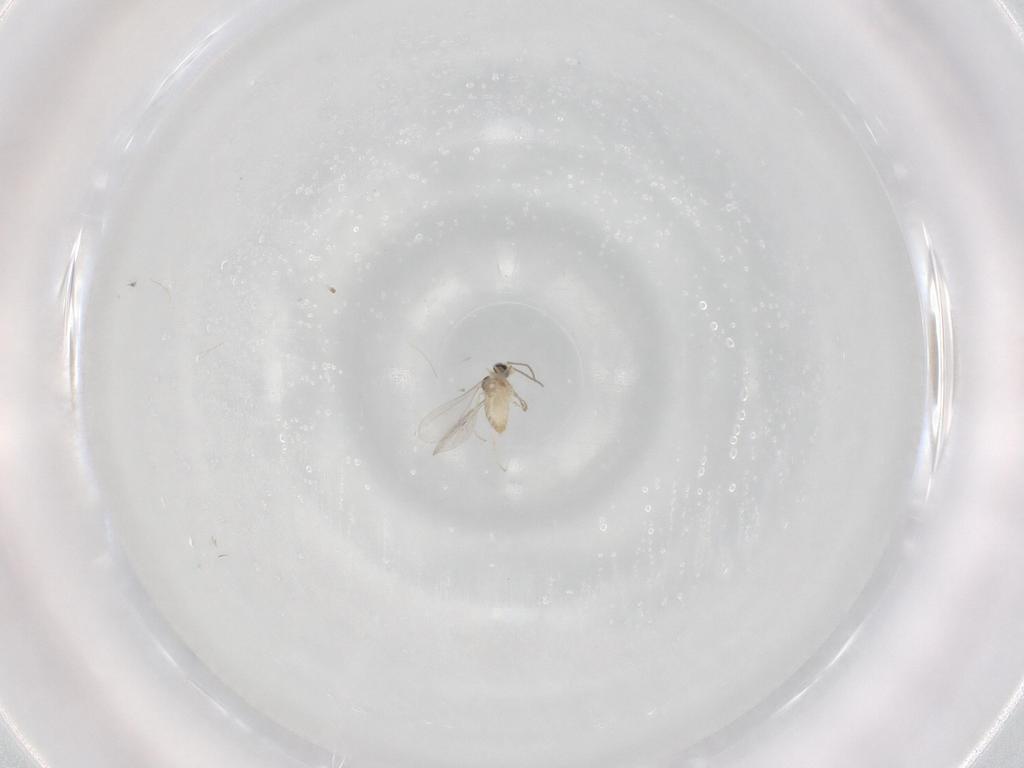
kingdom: Animalia
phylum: Arthropoda
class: Insecta
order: Diptera
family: Cecidomyiidae
